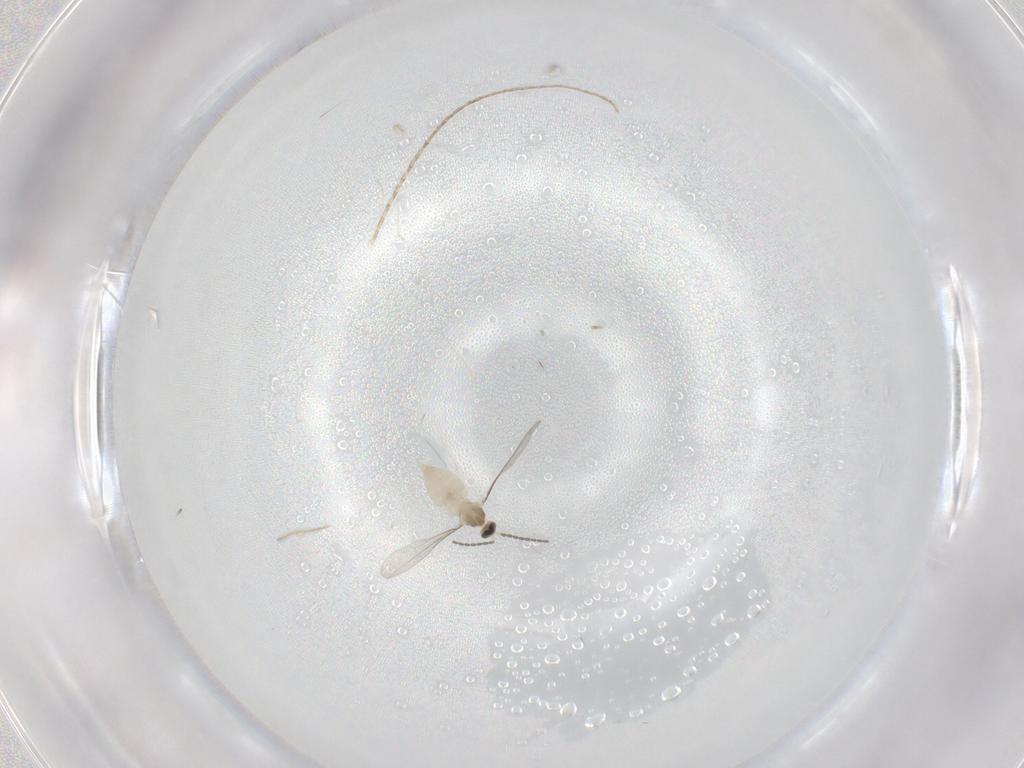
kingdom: Animalia
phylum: Arthropoda
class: Insecta
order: Diptera
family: Cecidomyiidae
